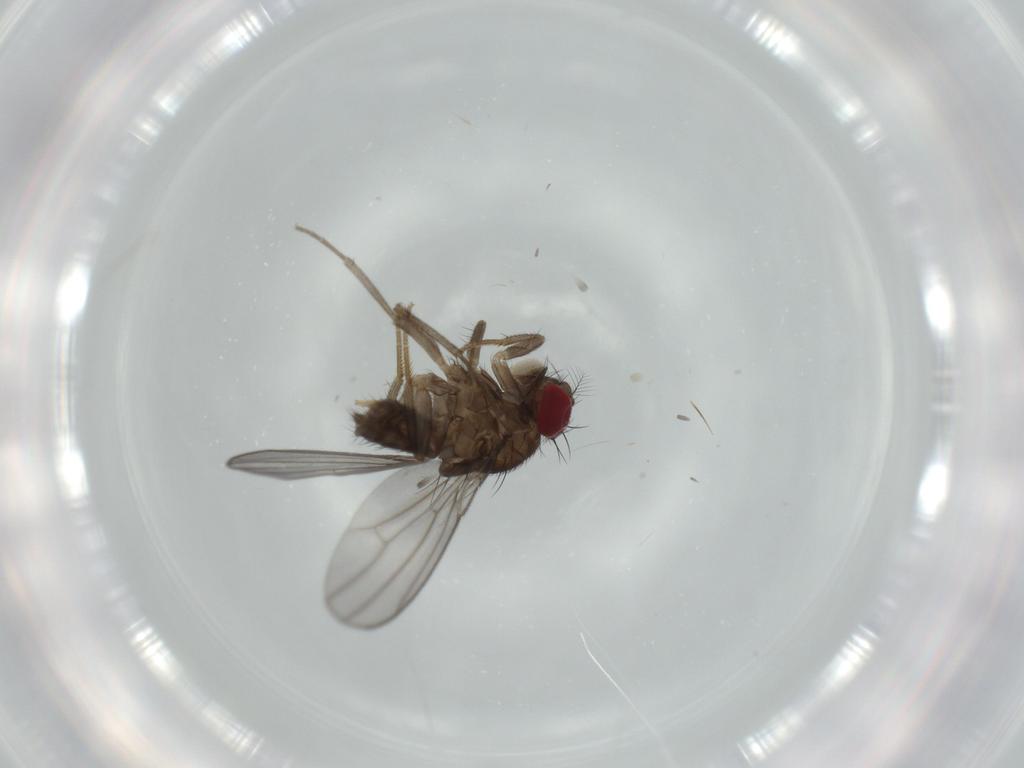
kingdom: Animalia
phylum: Arthropoda
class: Insecta
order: Diptera
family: Drosophilidae
